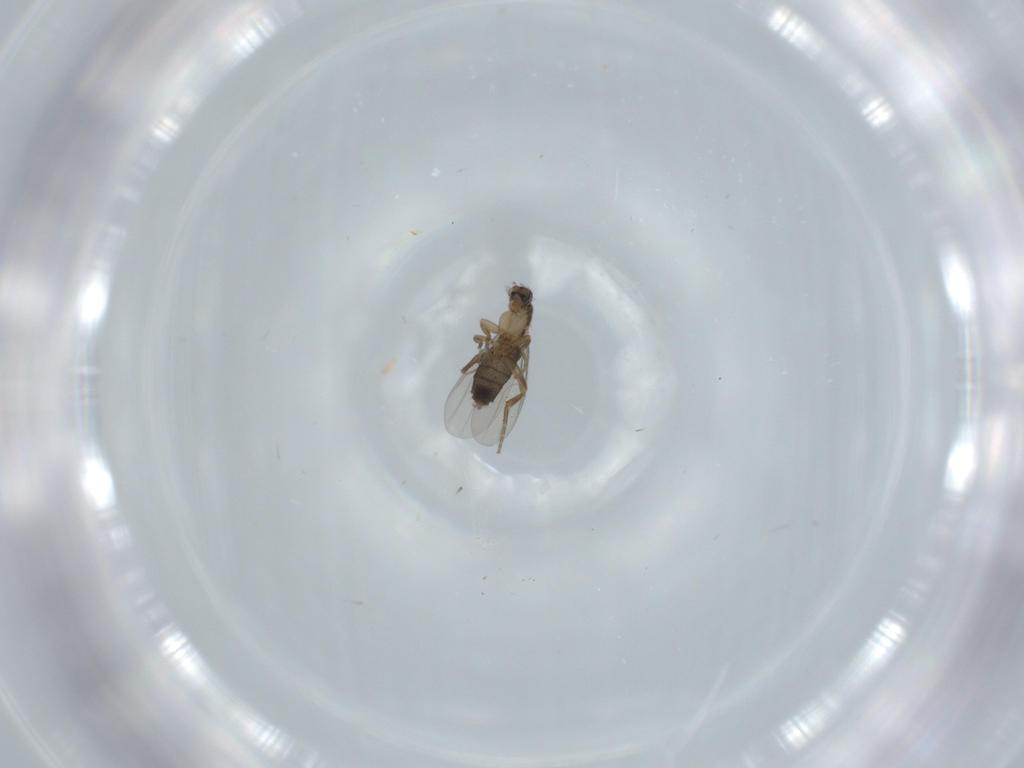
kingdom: Animalia
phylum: Arthropoda
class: Insecta
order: Diptera
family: Phoridae
